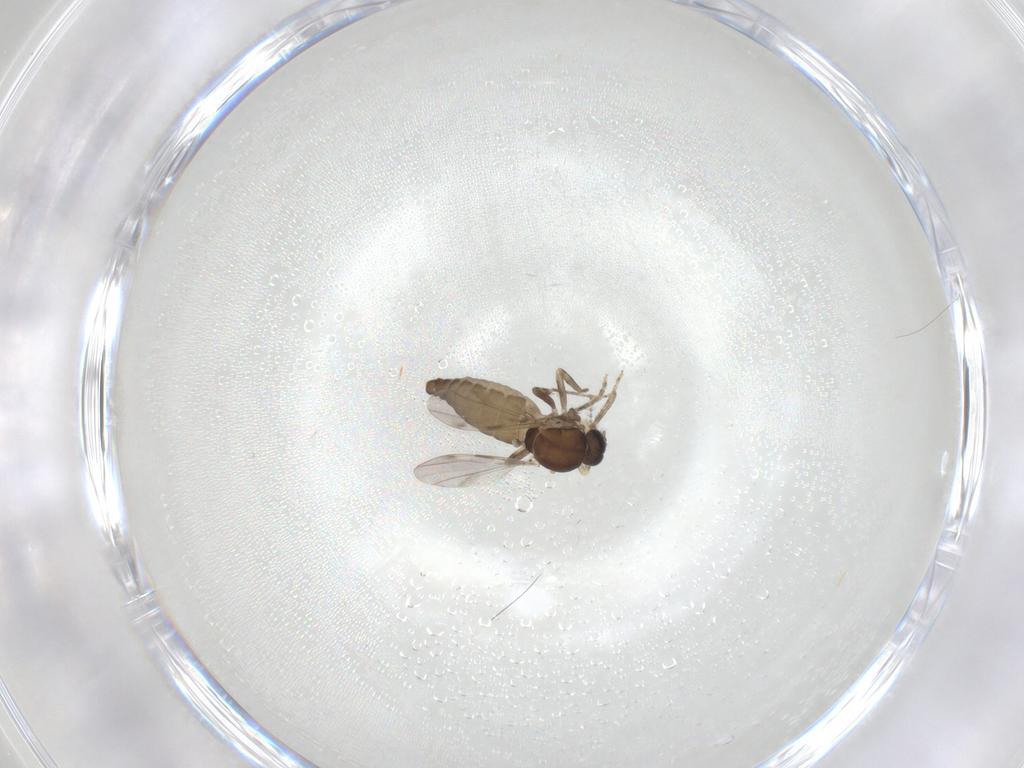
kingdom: Animalia
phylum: Arthropoda
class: Insecta
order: Diptera
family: Ceratopogonidae
